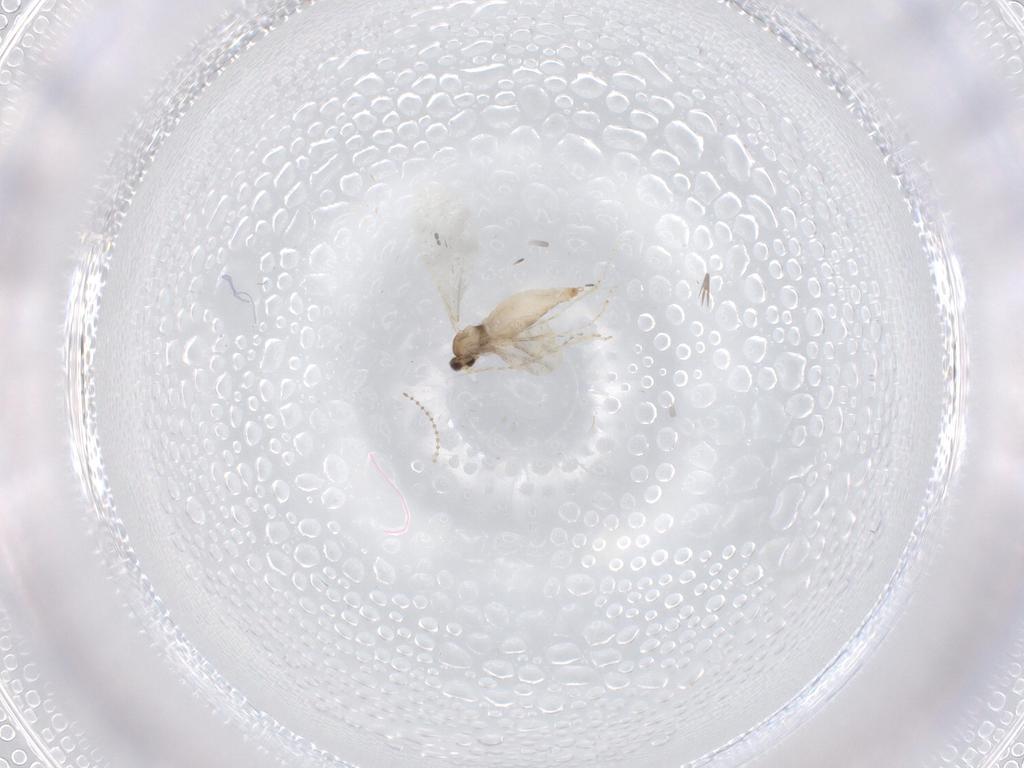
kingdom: Animalia
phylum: Arthropoda
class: Insecta
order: Diptera
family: Cecidomyiidae
